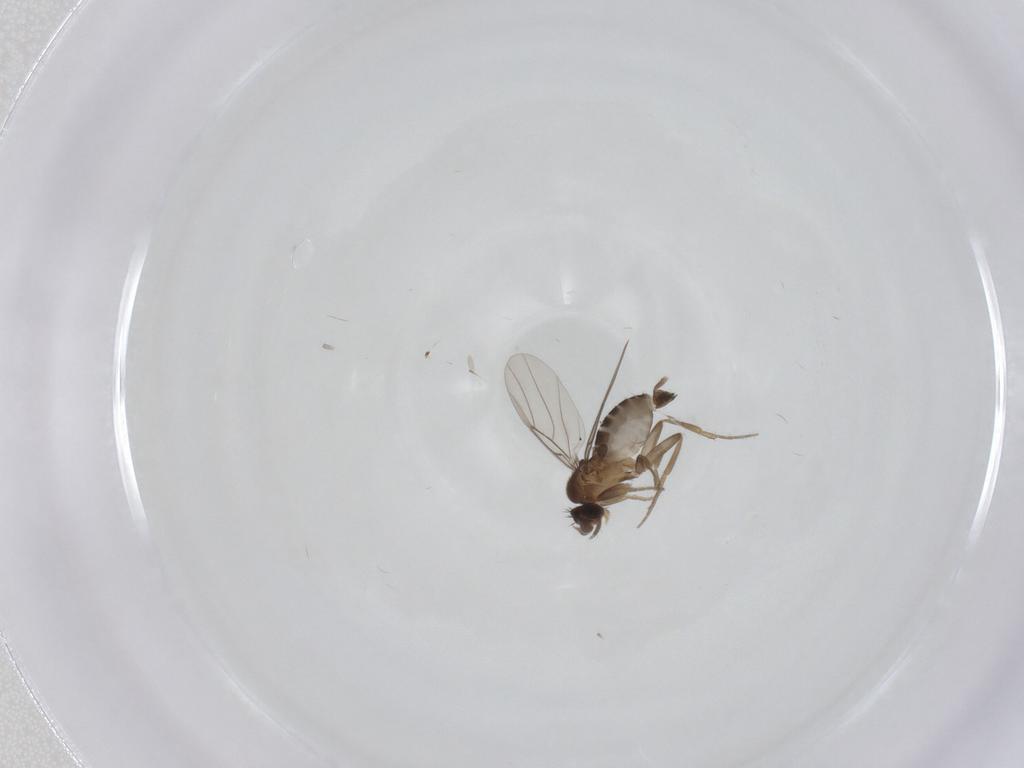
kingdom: Animalia
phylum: Arthropoda
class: Insecta
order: Diptera
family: Phoridae
